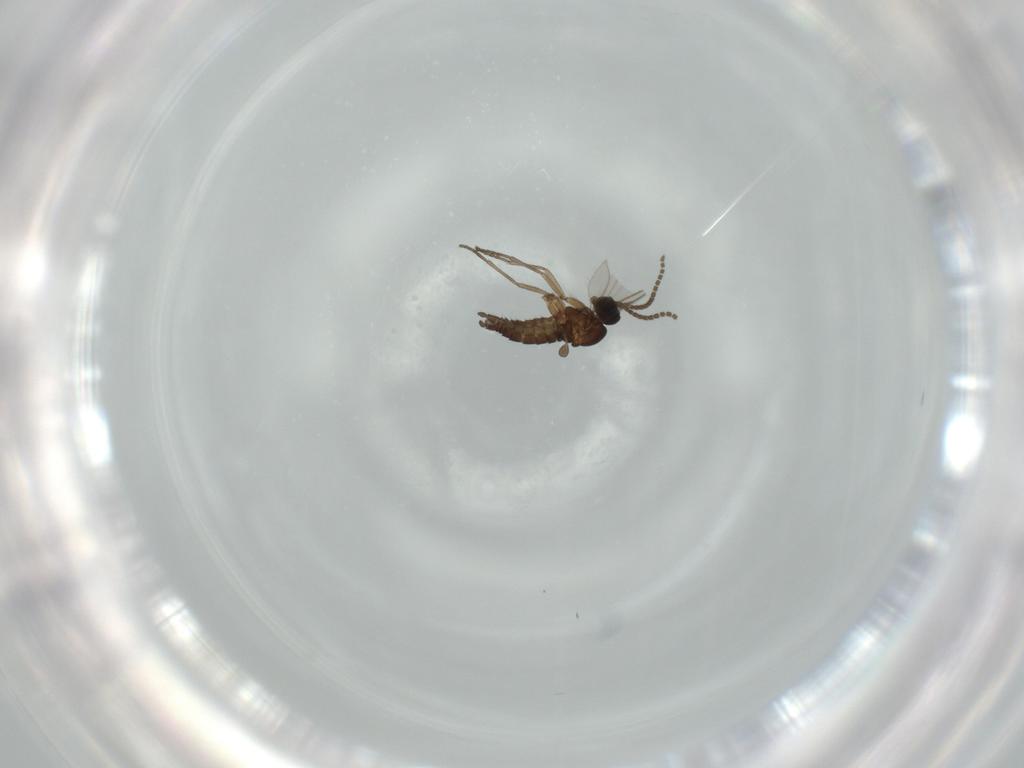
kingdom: Animalia
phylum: Arthropoda
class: Insecta
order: Diptera
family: Sciaridae
